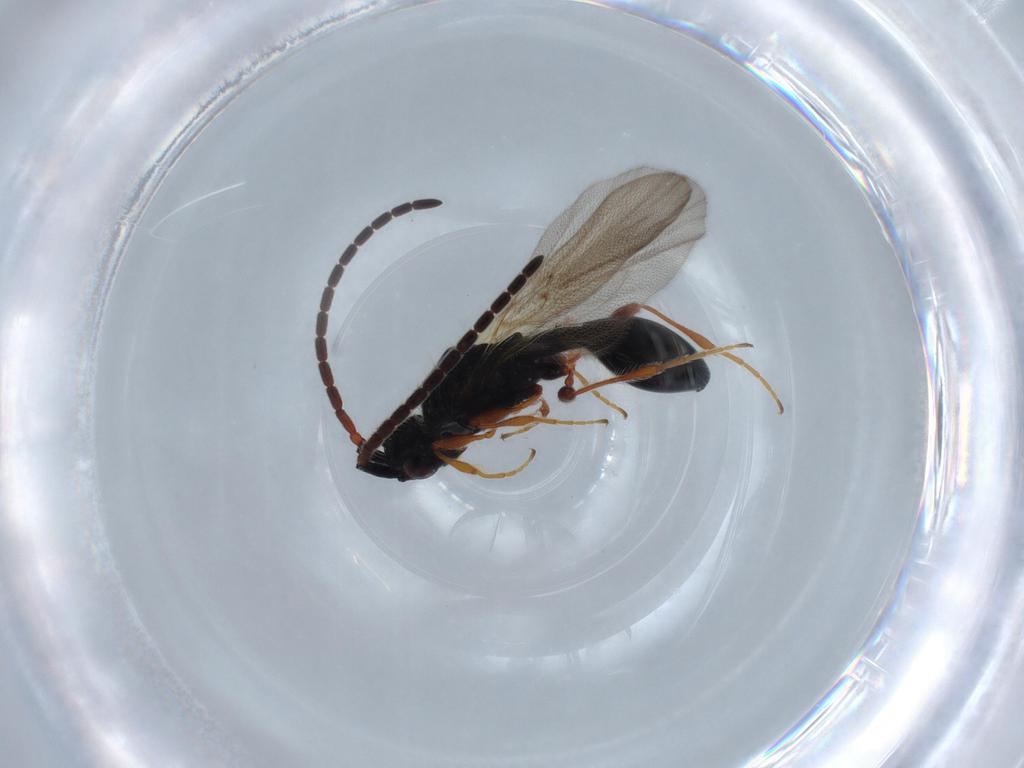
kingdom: Animalia
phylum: Arthropoda
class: Insecta
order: Hymenoptera
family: Diapriidae
